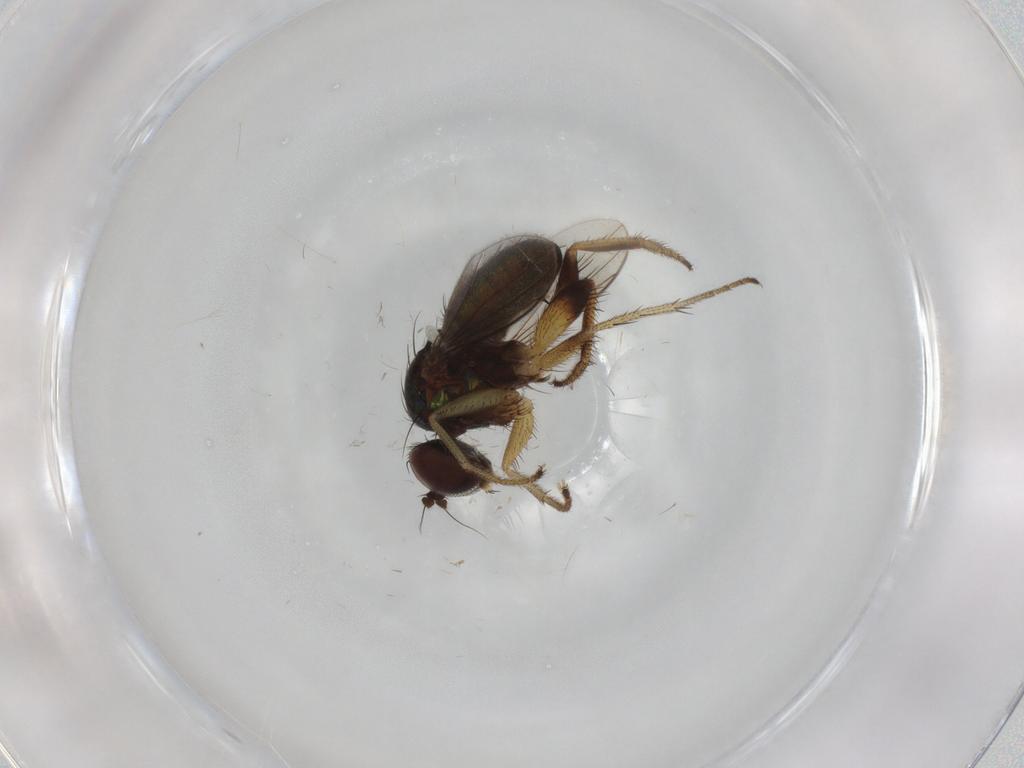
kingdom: Animalia
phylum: Arthropoda
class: Insecta
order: Diptera
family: Dolichopodidae
